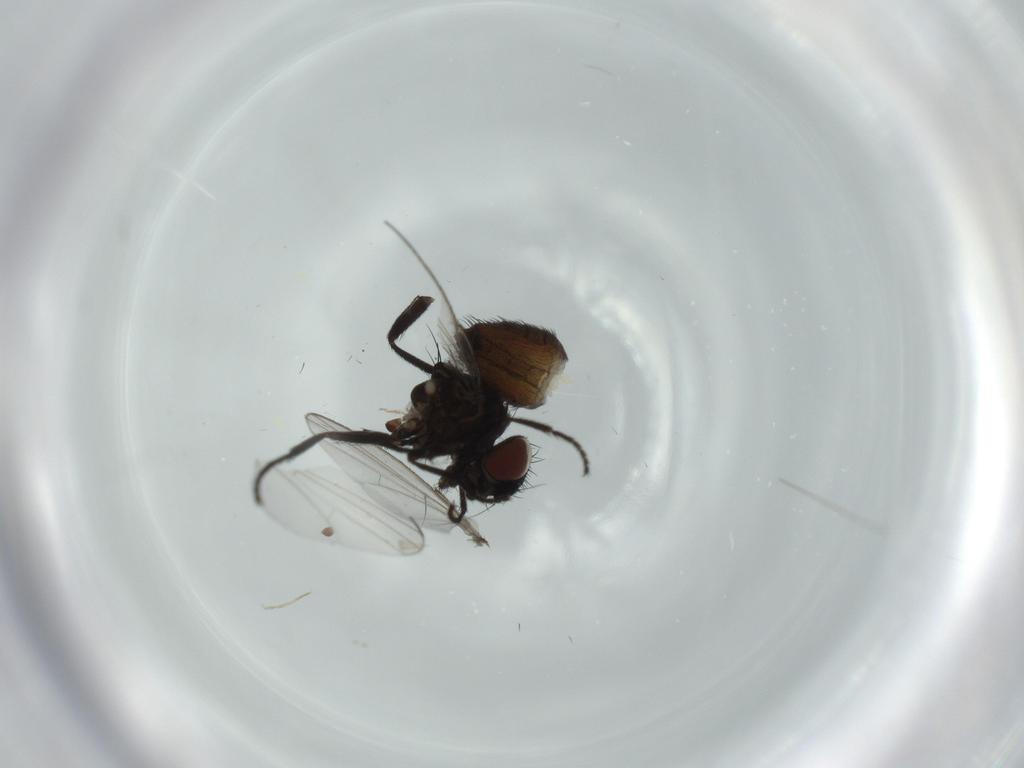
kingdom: Animalia
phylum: Arthropoda
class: Insecta
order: Diptera
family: Milichiidae
